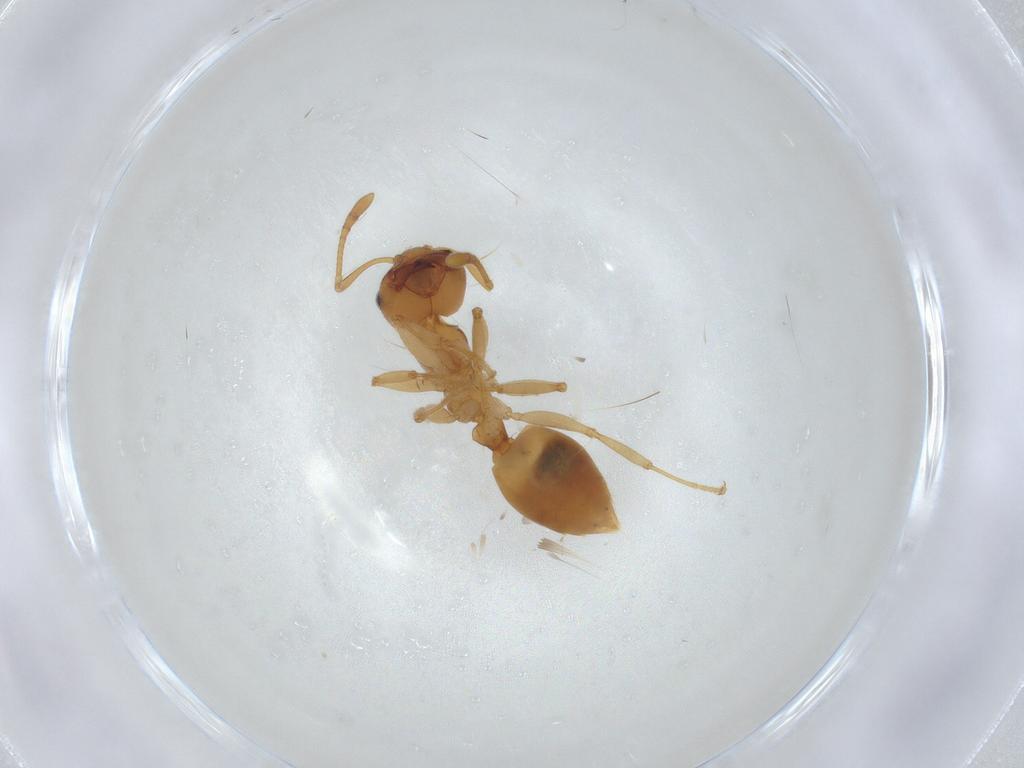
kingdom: Animalia
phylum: Arthropoda
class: Insecta
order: Hymenoptera
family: Formicidae
